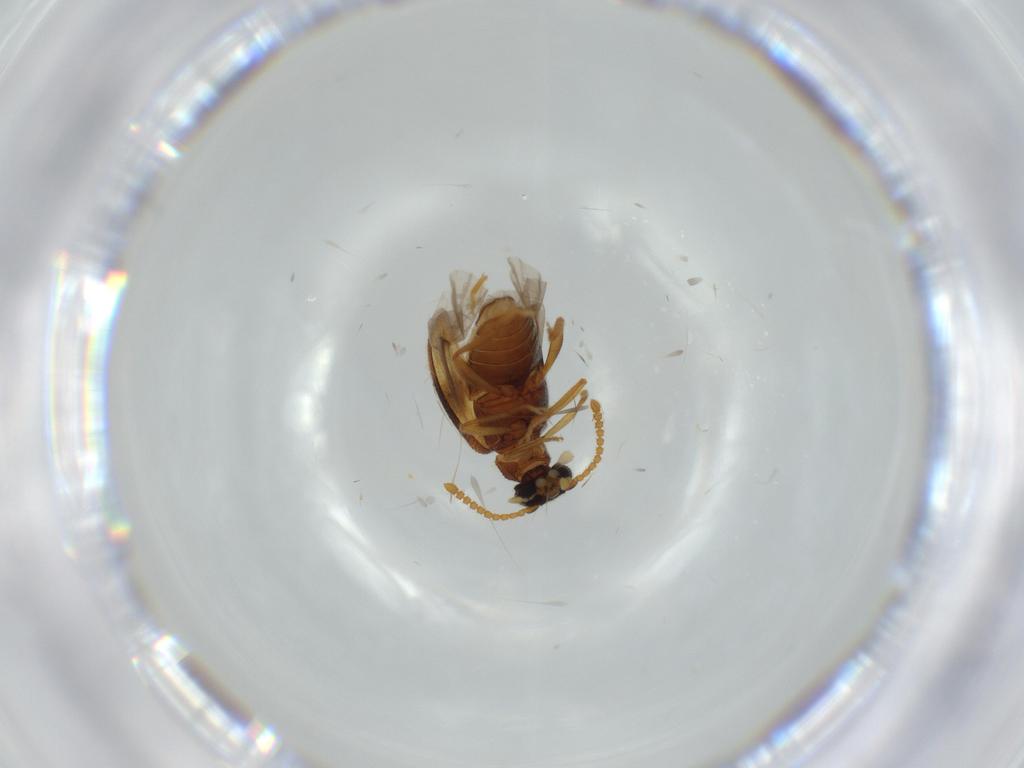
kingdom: Animalia
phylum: Arthropoda
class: Insecta
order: Coleoptera
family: Aderidae
